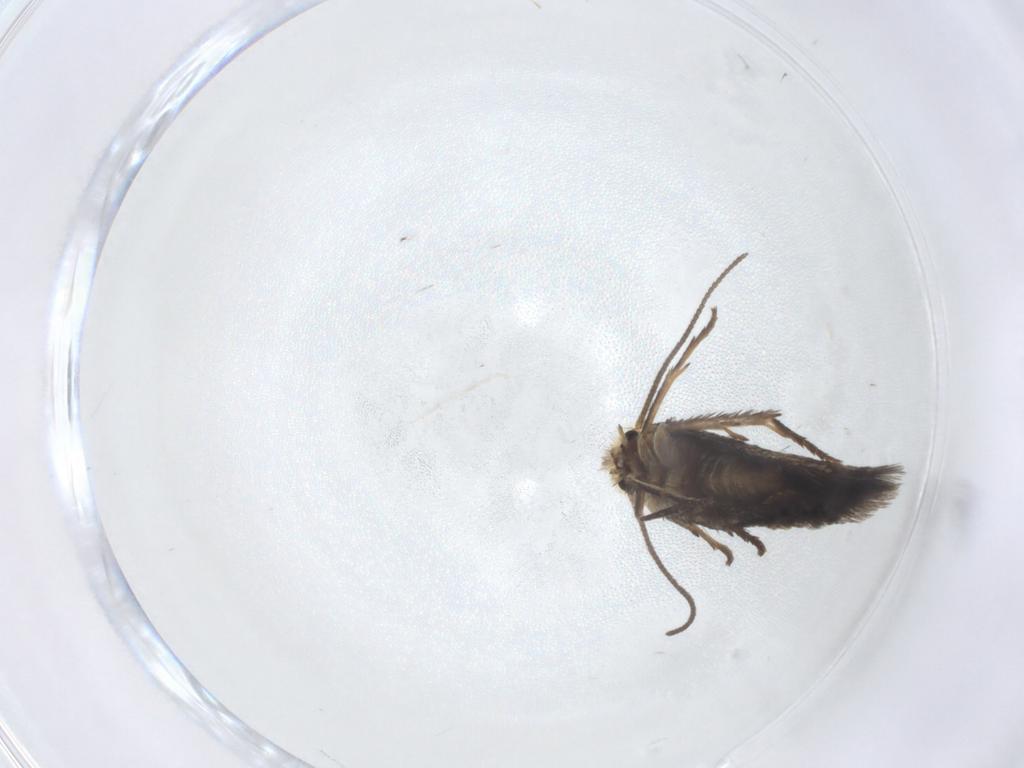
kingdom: Animalia
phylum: Arthropoda
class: Insecta
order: Lepidoptera
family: Nepticulidae
